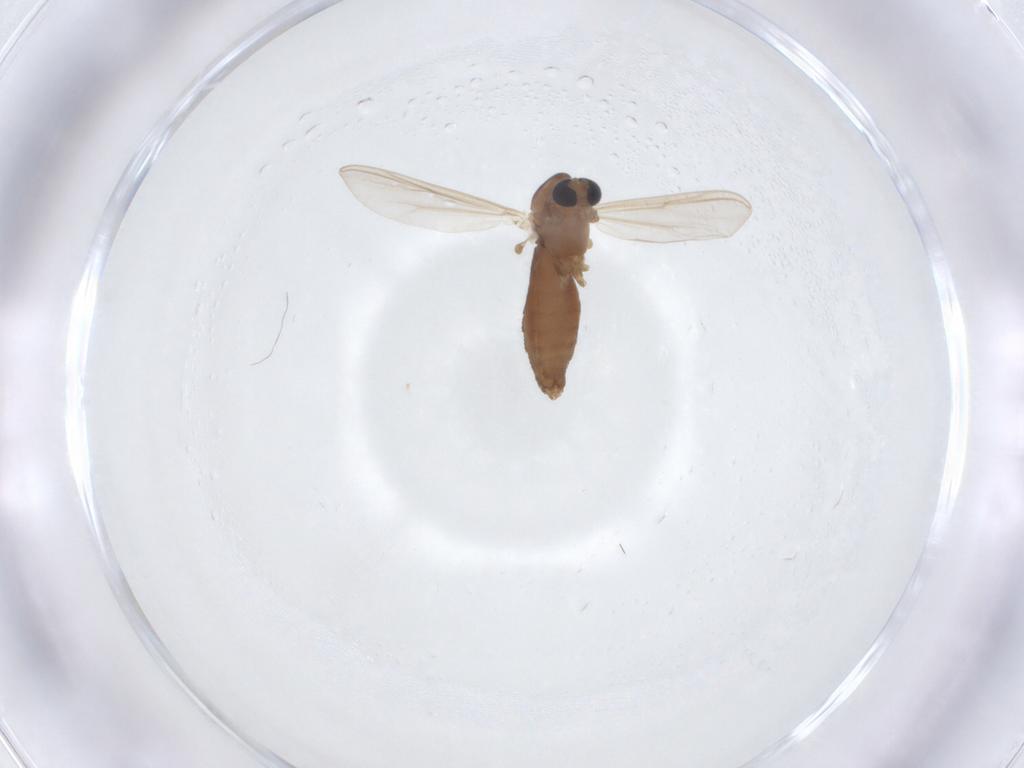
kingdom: Animalia
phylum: Arthropoda
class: Insecta
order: Diptera
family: Chironomidae
